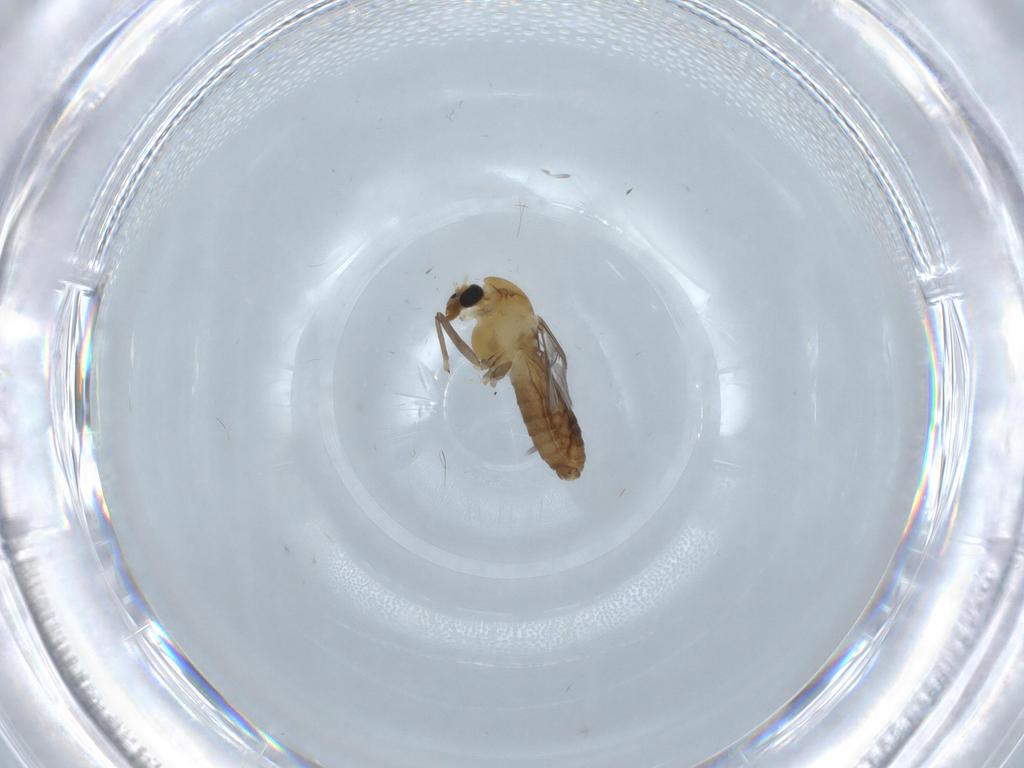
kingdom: Animalia
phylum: Arthropoda
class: Insecta
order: Diptera
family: Chironomidae
